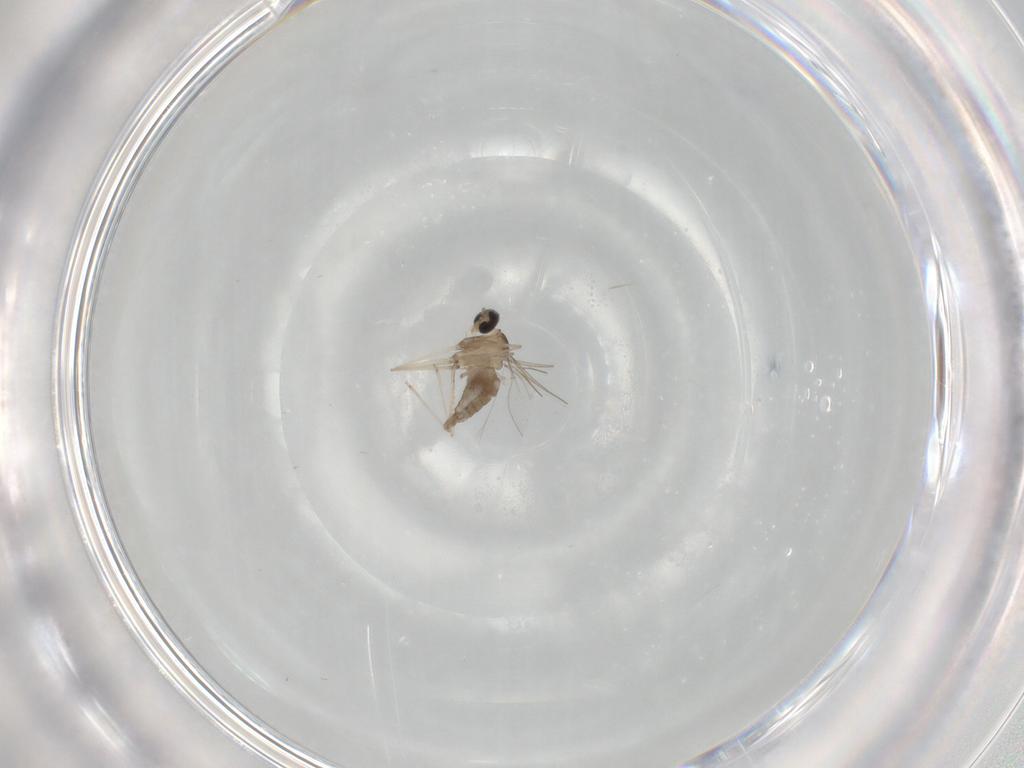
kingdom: Animalia
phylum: Arthropoda
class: Insecta
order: Diptera
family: Cecidomyiidae
